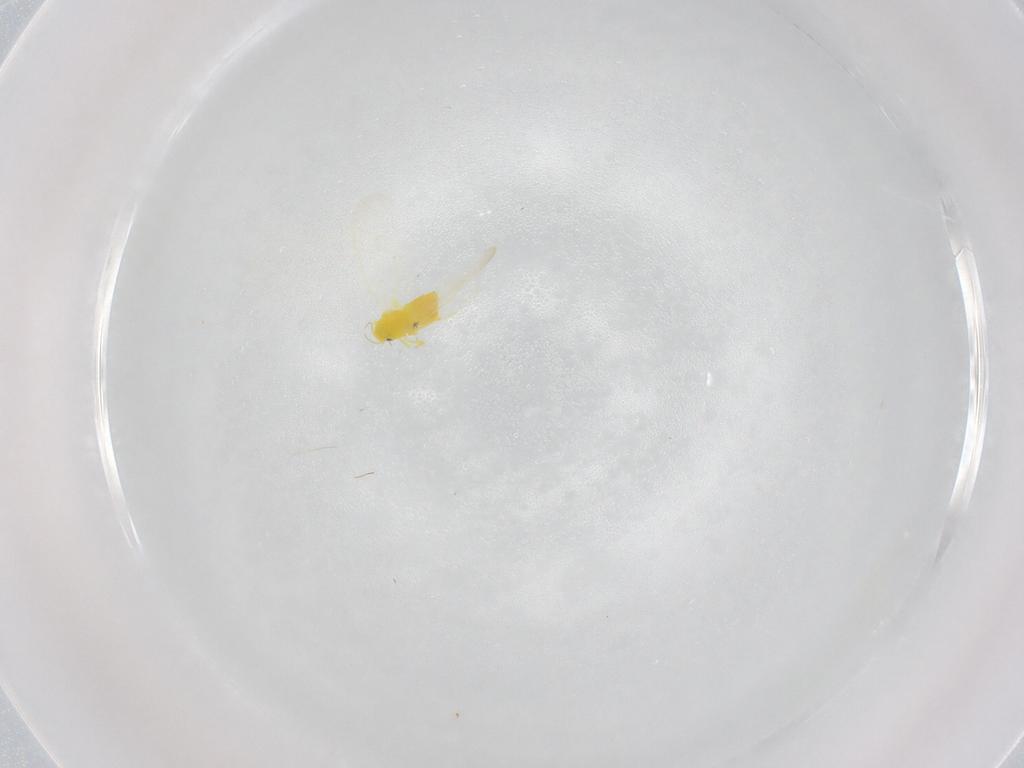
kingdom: Animalia
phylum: Arthropoda
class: Insecta
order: Hemiptera
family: Aleyrodidae
